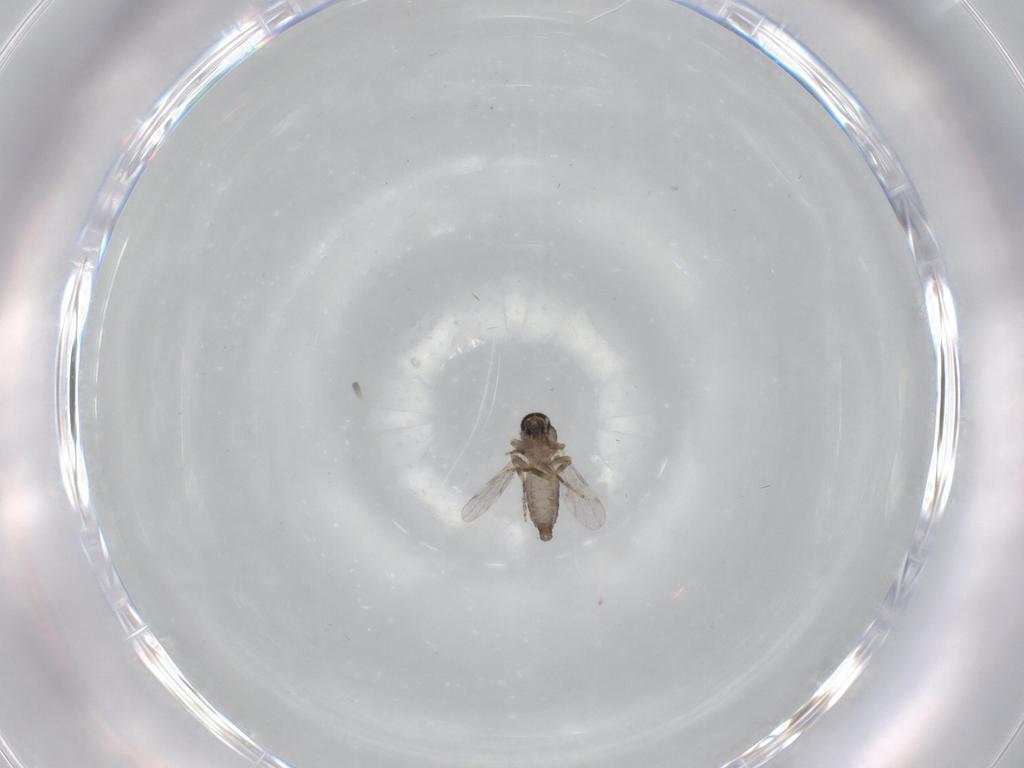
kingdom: Animalia
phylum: Arthropoda
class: Insecta
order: Diptera
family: Ceratopogonidae
